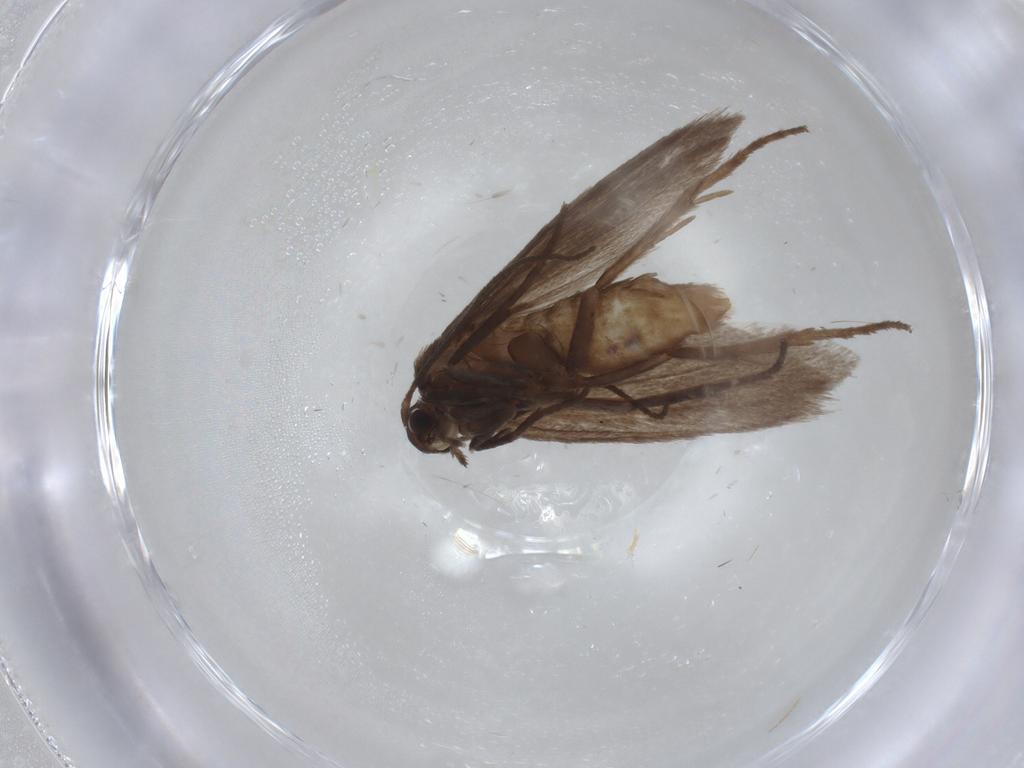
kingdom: Animalia
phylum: Arthropoda
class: Insecta
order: Lepidoptera
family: Limacodidae
